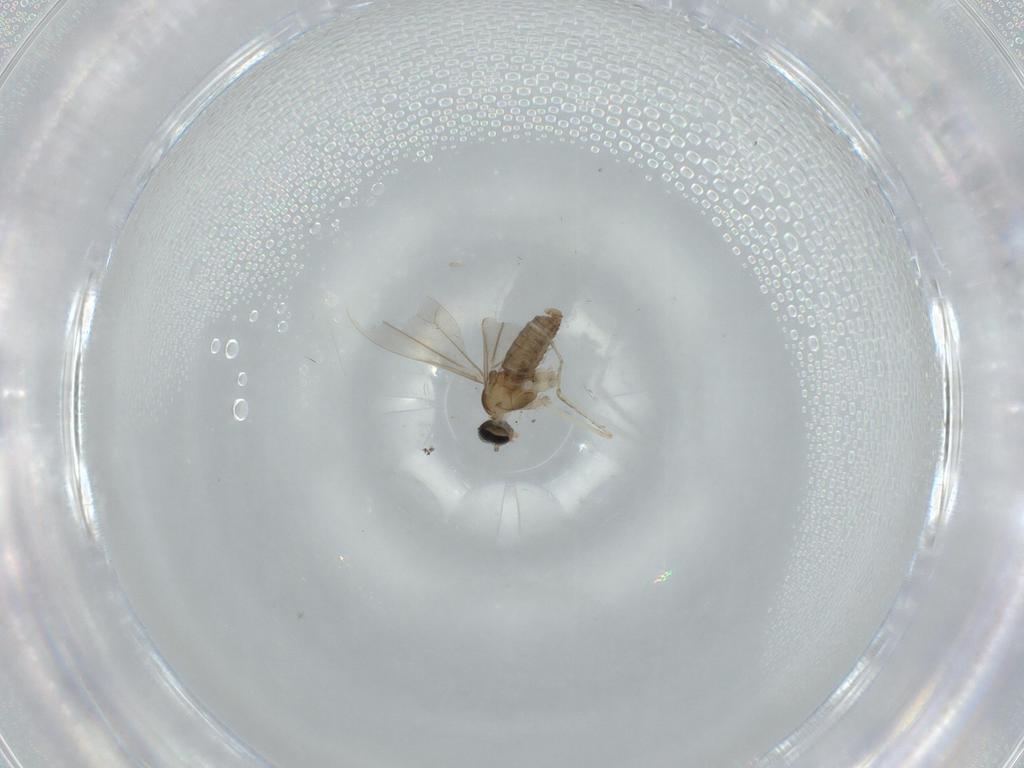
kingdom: Animalia
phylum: Arthropoda
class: Insecta
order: Diptera
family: Cecidomyiidae
